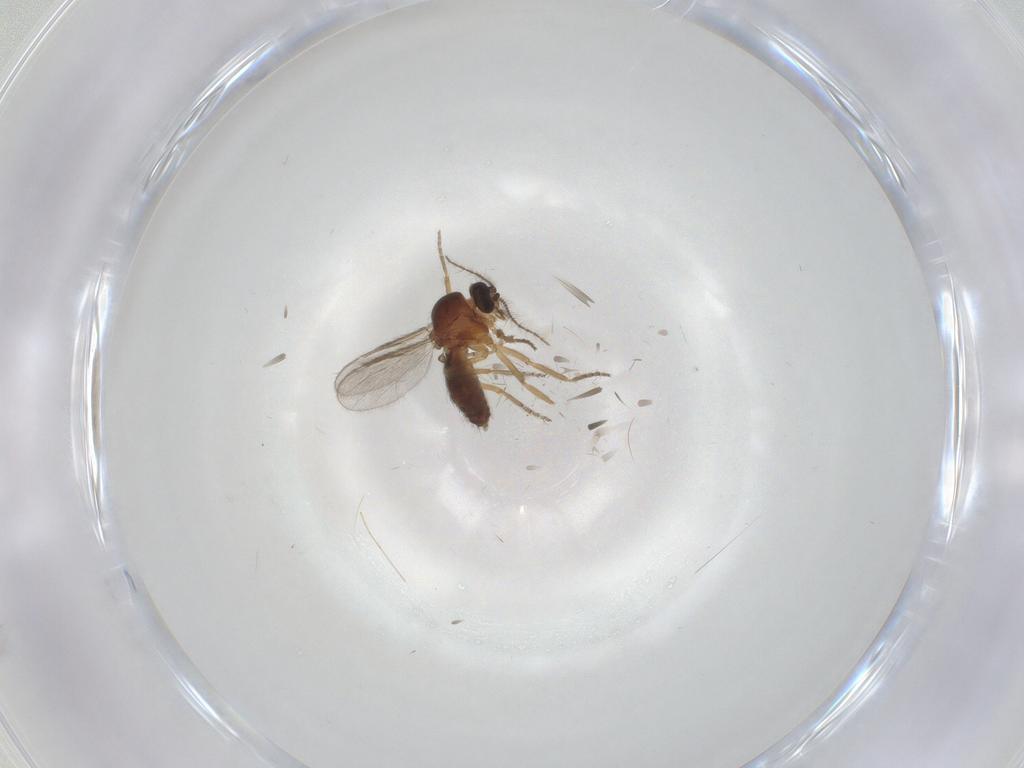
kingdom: Animalia
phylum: Arthropoda
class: Insecta
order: Diptera
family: Ceratopogonidae
